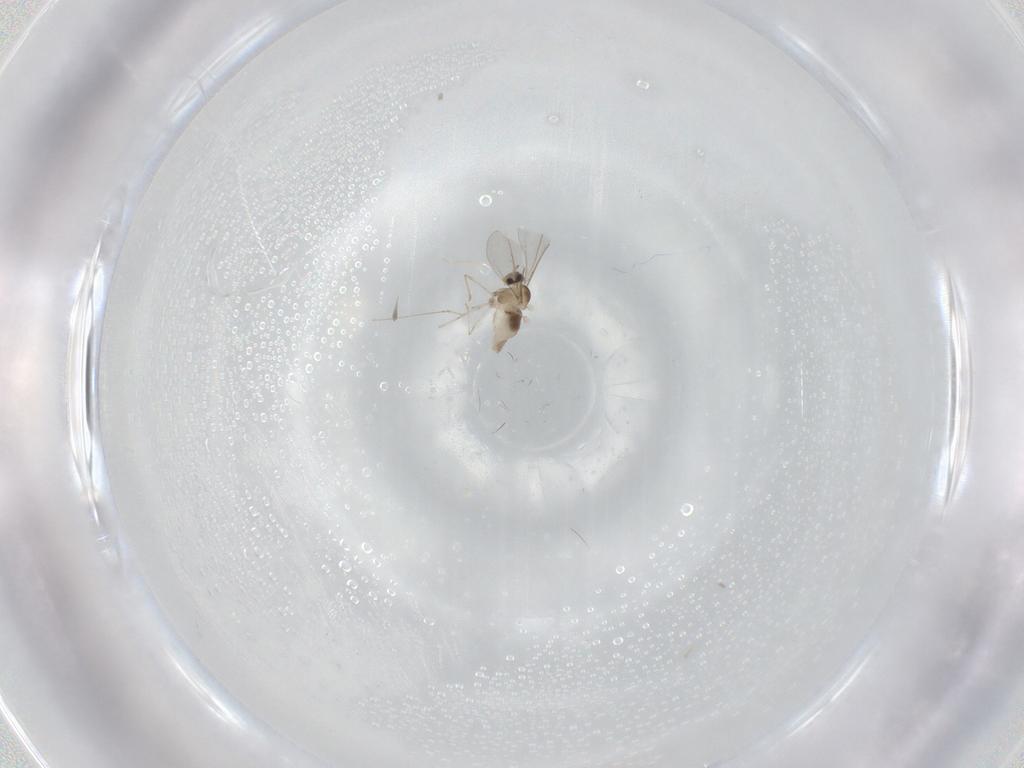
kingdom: Animalia
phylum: Arthropoda
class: Insecta
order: Diptera
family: Cecidomyiidae
